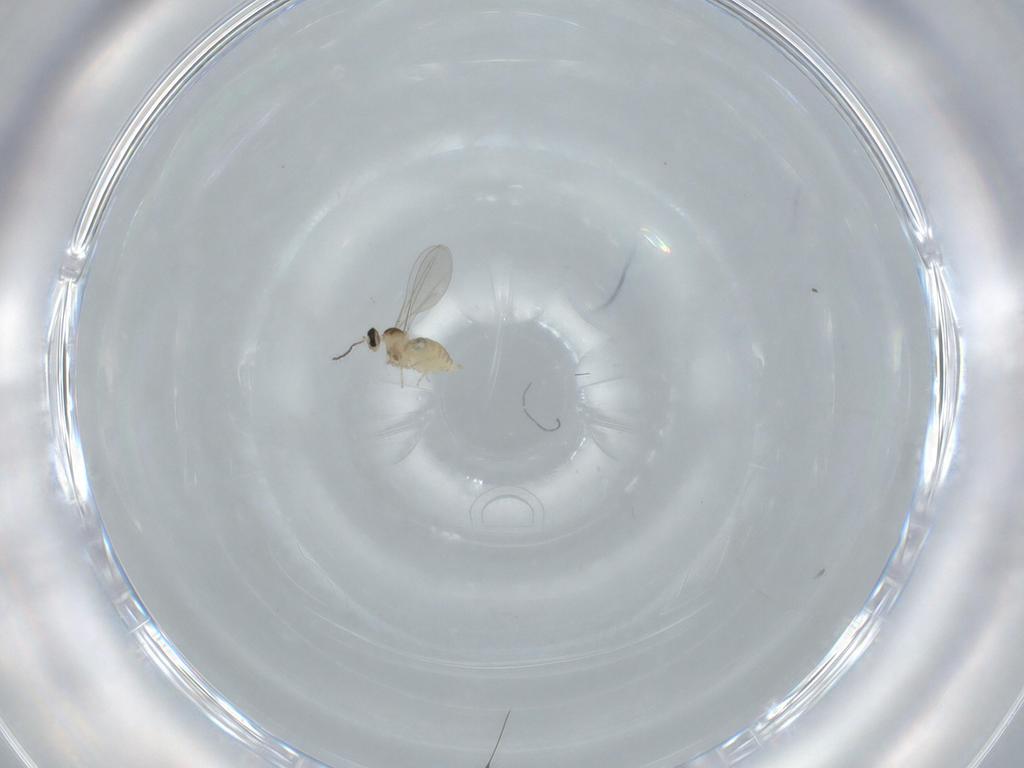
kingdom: Animalia
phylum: Arthropoda
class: Insecta
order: Diptera
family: Cecidomyiidae
